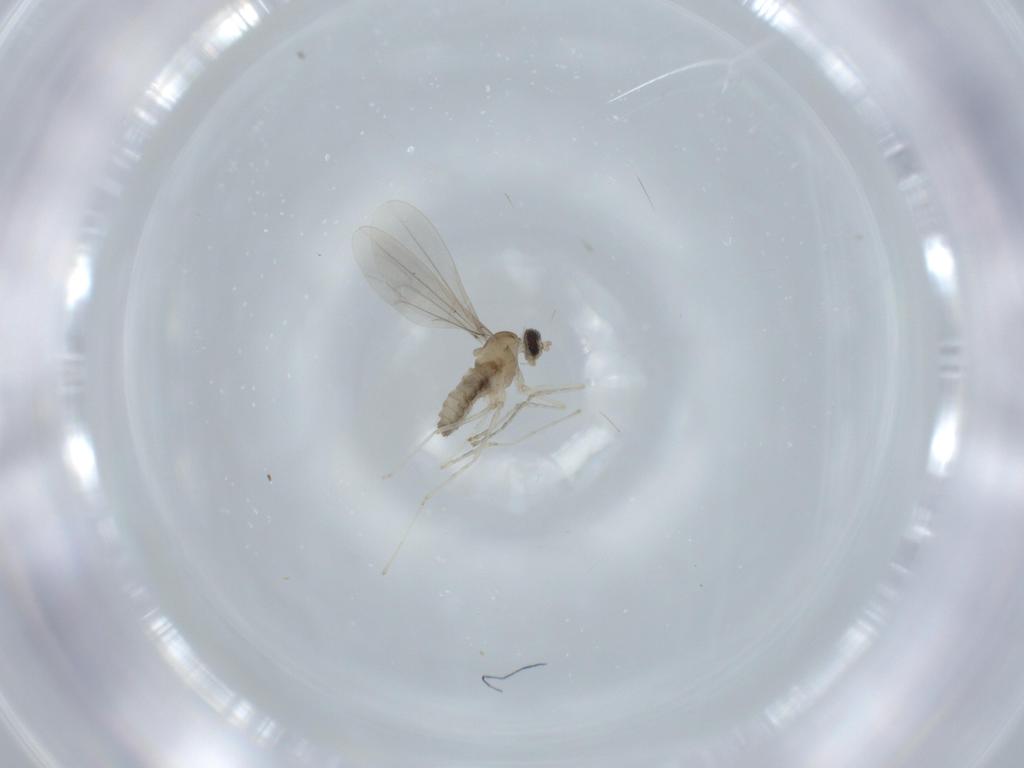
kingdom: Animalia
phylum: Arthropoda
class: Insecta
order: Diptera
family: Cecidomyiidae
